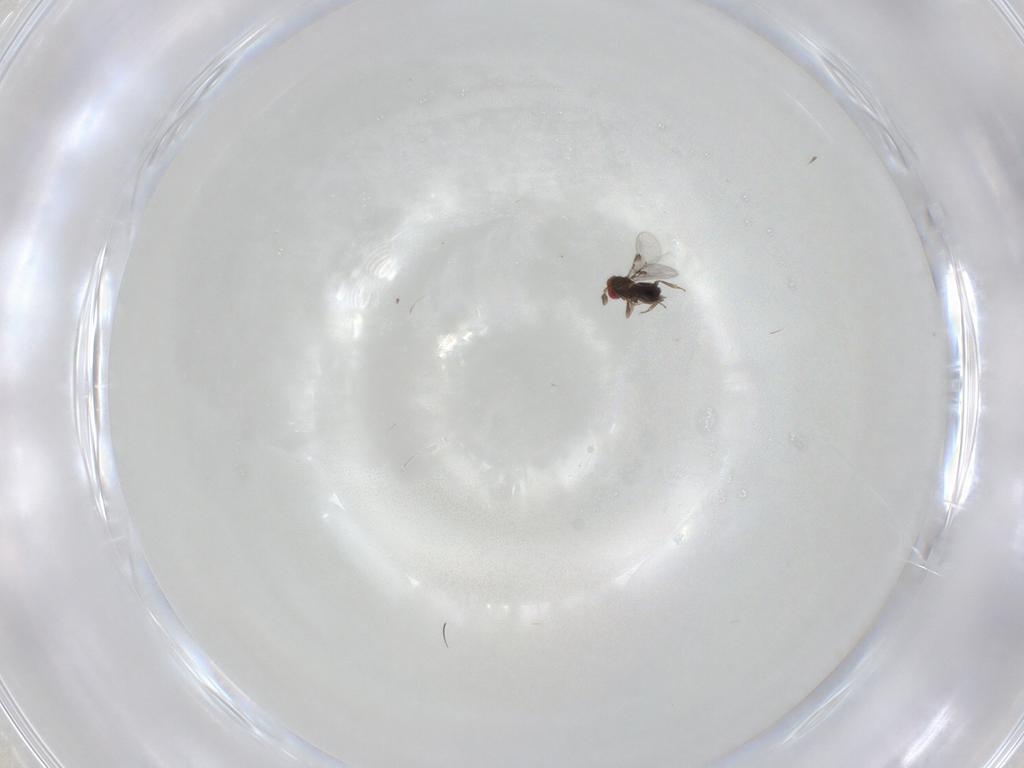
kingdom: Animalia
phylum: Arthropoda
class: Insecta
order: Hymenoptera
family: Trichogrammatidae
